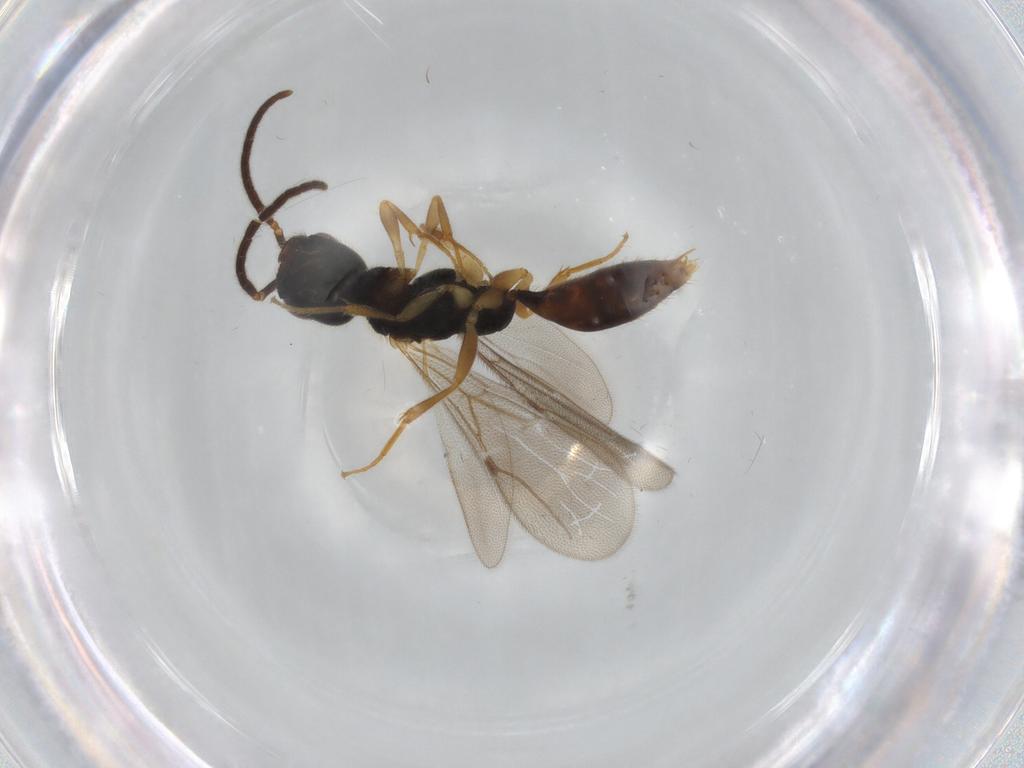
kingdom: Animalia
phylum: Arthropoda
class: Insecta
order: Hymenoptera
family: Bethylidae
